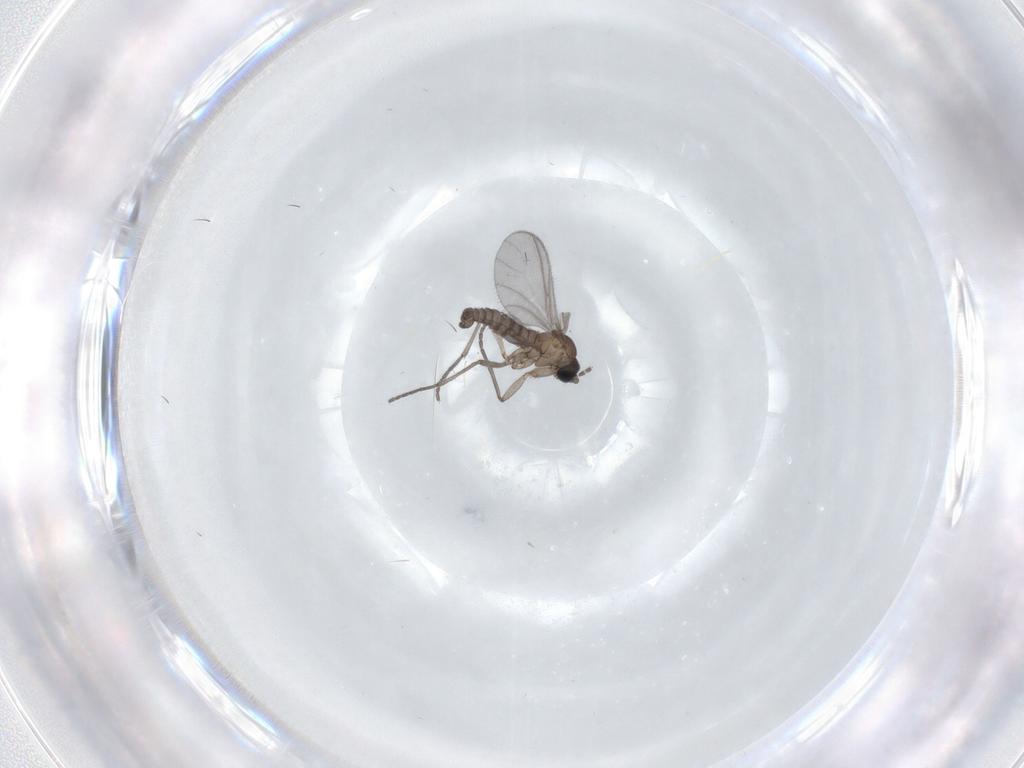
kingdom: Animalia
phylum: Arthropoda
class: Insecta
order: Diptera
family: Sciaridae
